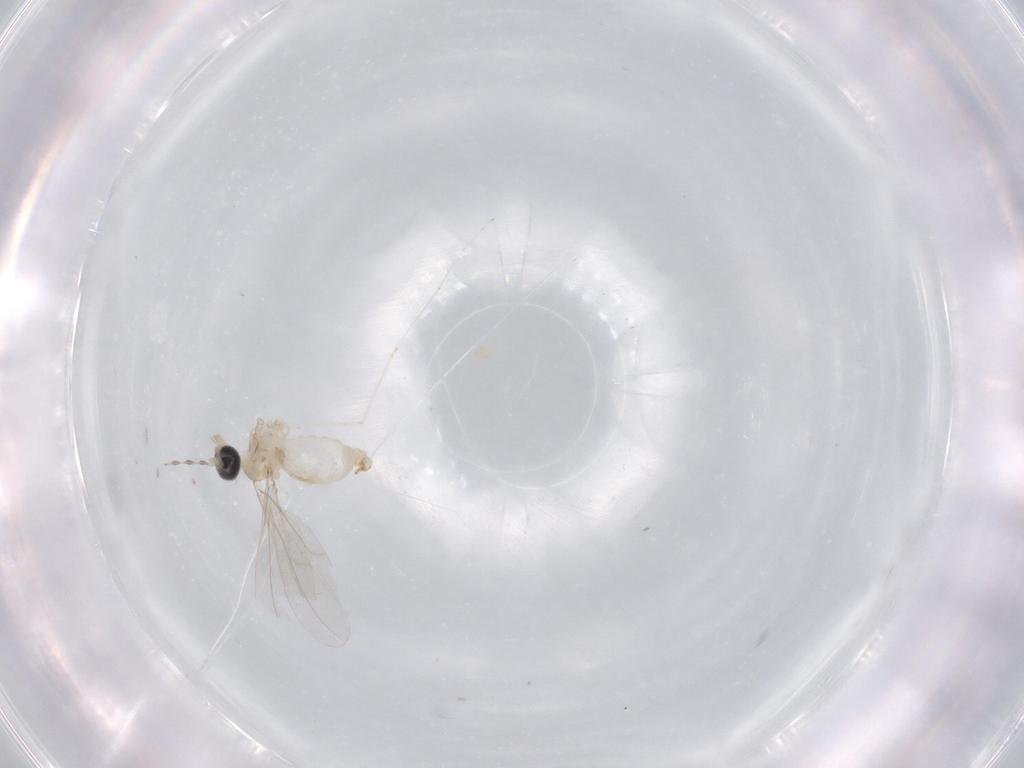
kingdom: Animalia
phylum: Arthropoda
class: Insecta
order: Diptera
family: Cecidomyiidae
